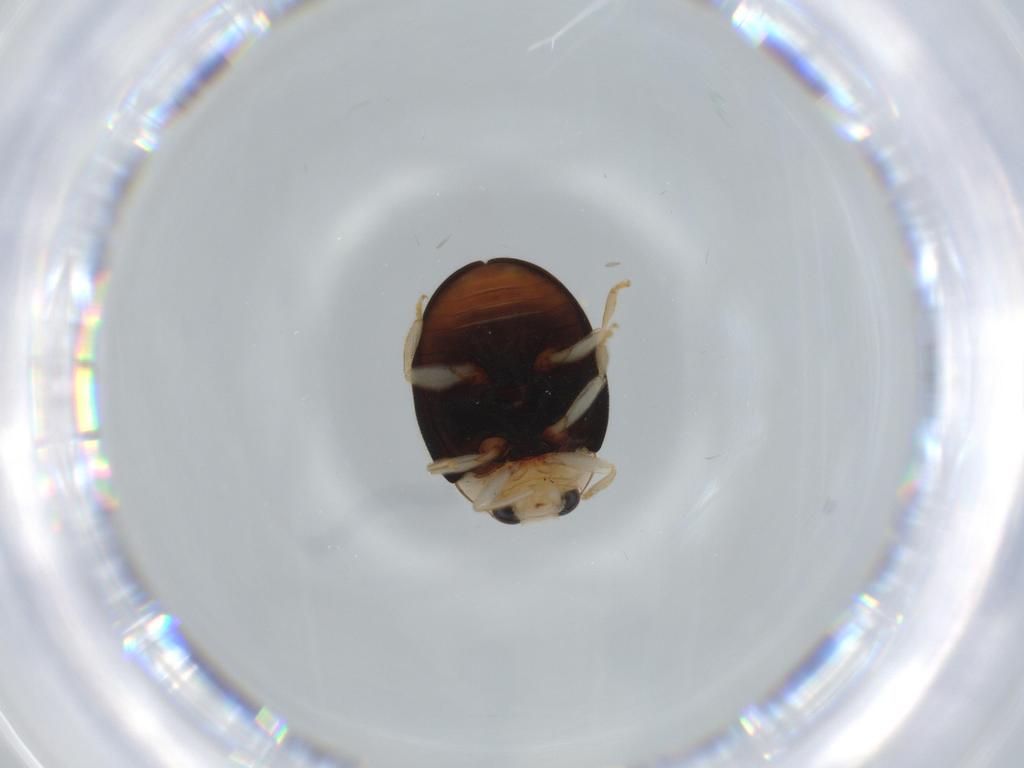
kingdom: Animalia
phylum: Arthropoda
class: Insecta
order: Coleoptera
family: Coccinellidae
